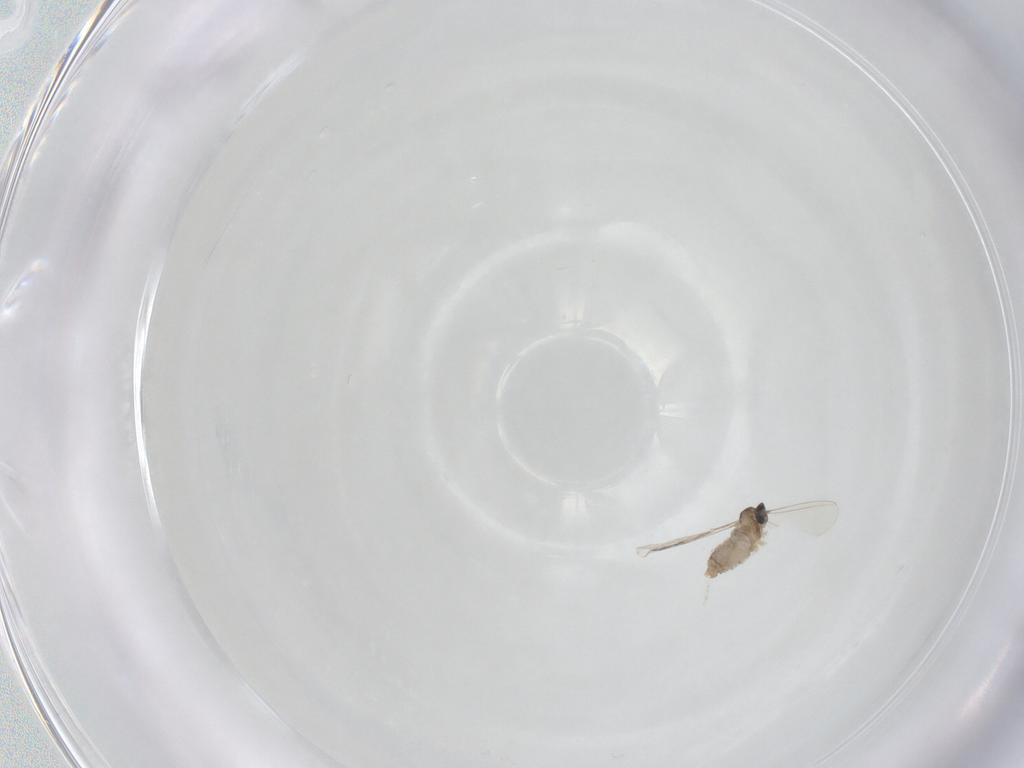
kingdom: Animalia
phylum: Arthropoda
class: Insecta
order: Diptera
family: Cecidomyiidae
